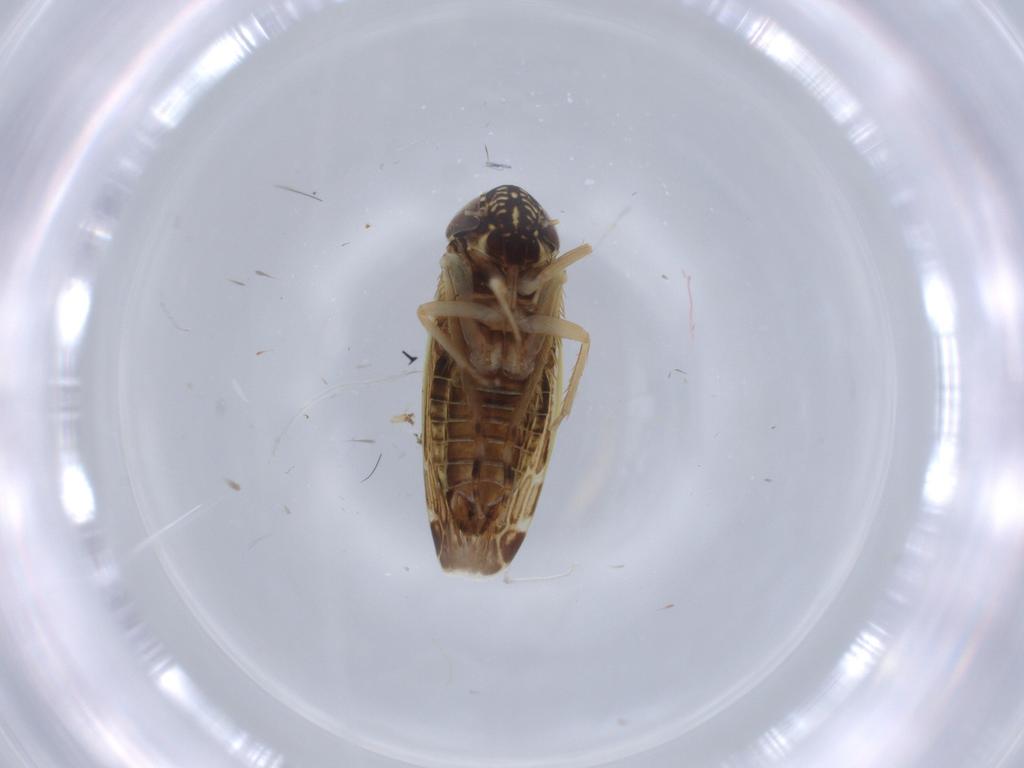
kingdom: Animalia
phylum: Arthropoda
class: Insecta
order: Hemiptera
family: Cicadellidae
